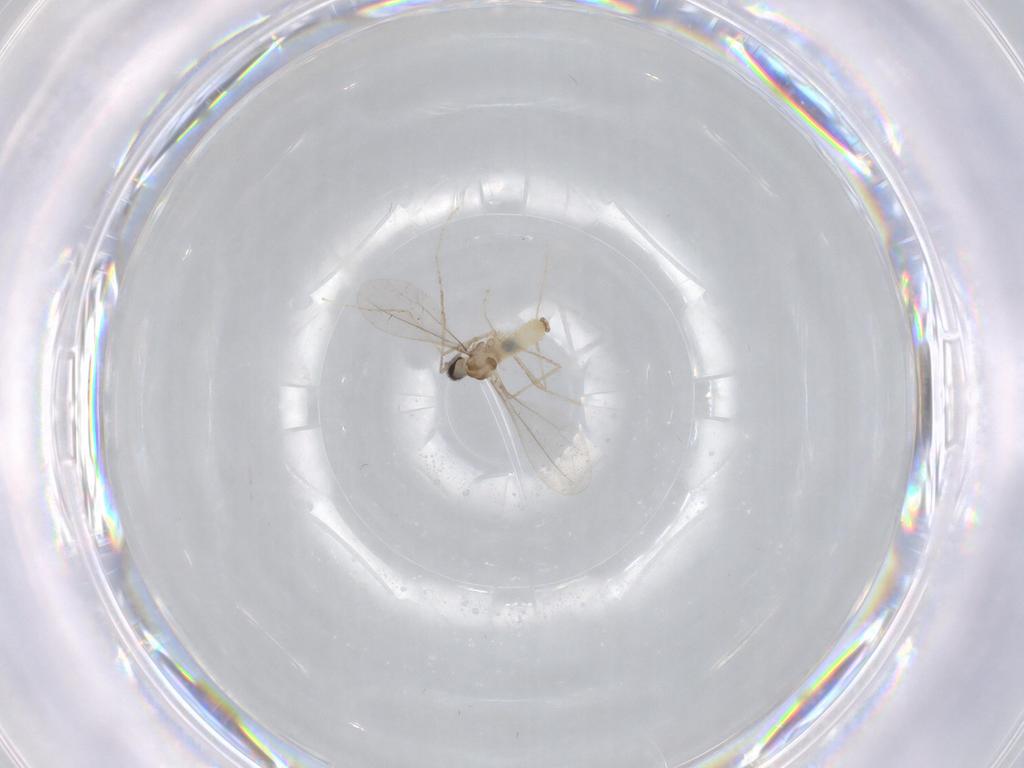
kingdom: Animalia
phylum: Arthropoda
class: Insecta
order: Diptera
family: Cecidomyiidae
